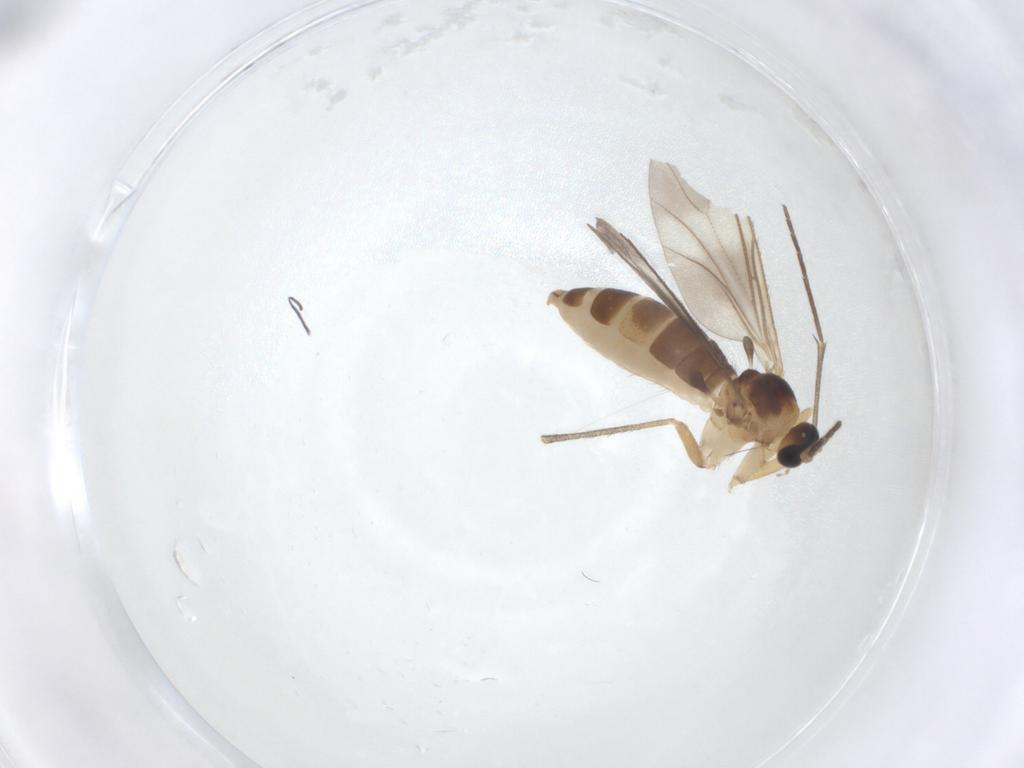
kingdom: Animalia
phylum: Arthropoda
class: Insecta
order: Diptera
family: Sciaridae
